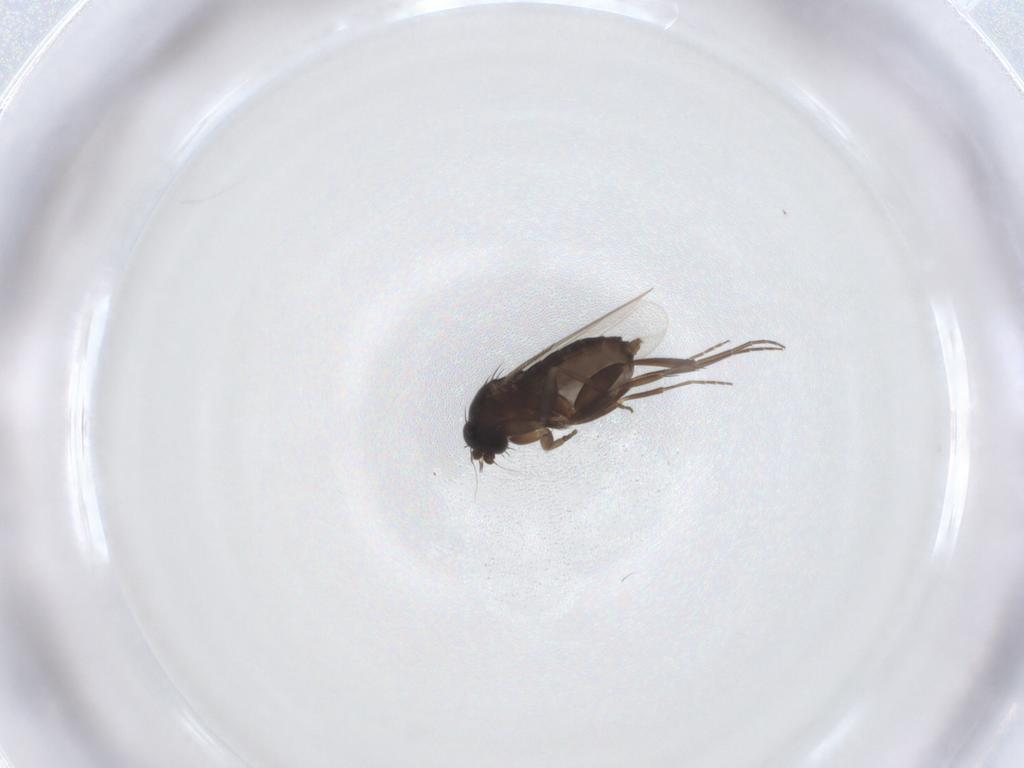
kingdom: Animalia
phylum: Arthropoda
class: Insecta
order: Diptera
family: Phoridae
